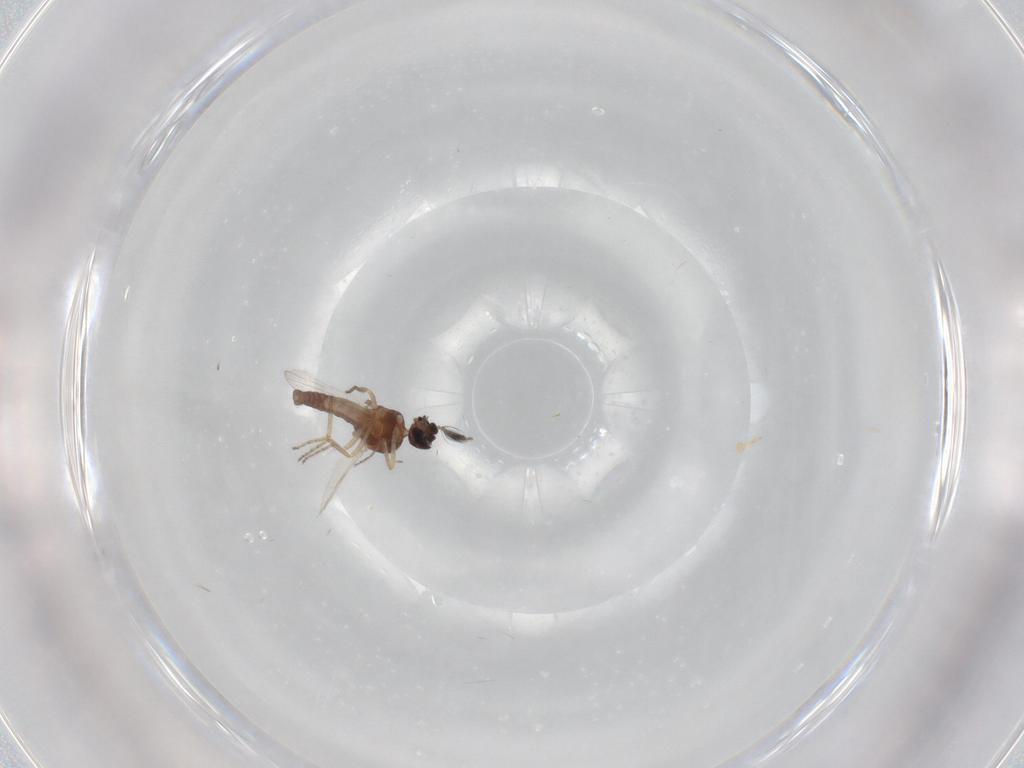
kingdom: Animalia
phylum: Arthropoda
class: Insecta
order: Diptera
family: Ceratopogonidae
